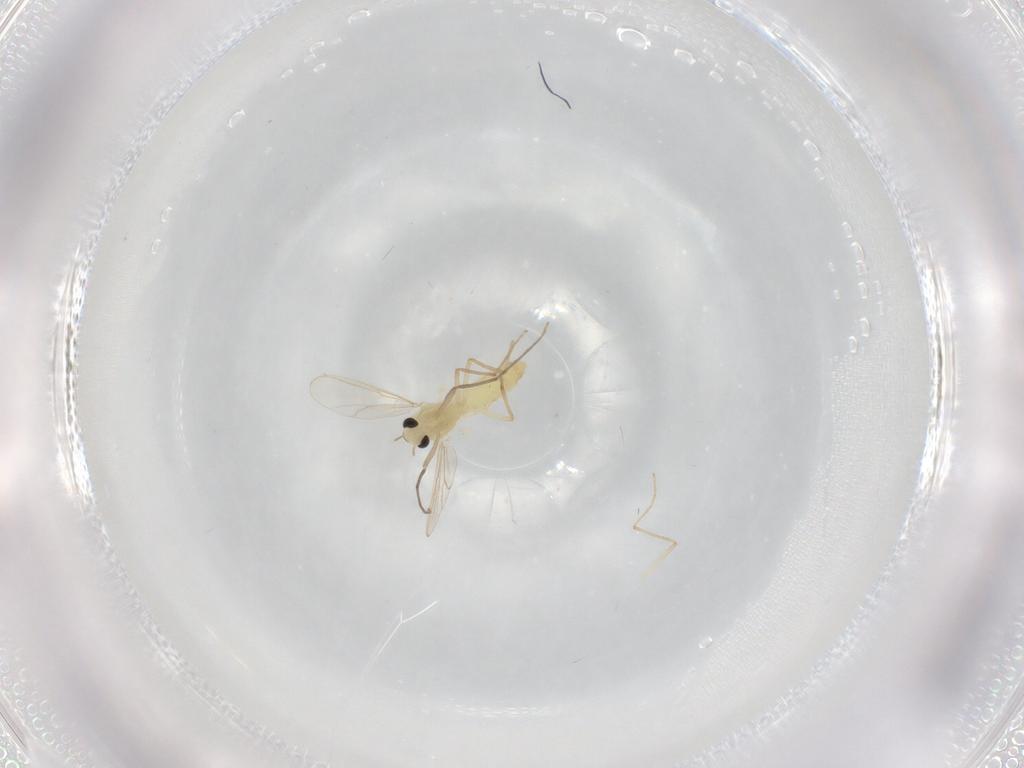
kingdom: Animalia
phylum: Arthropoda
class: Insecta
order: Diptera
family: Chironomidae
